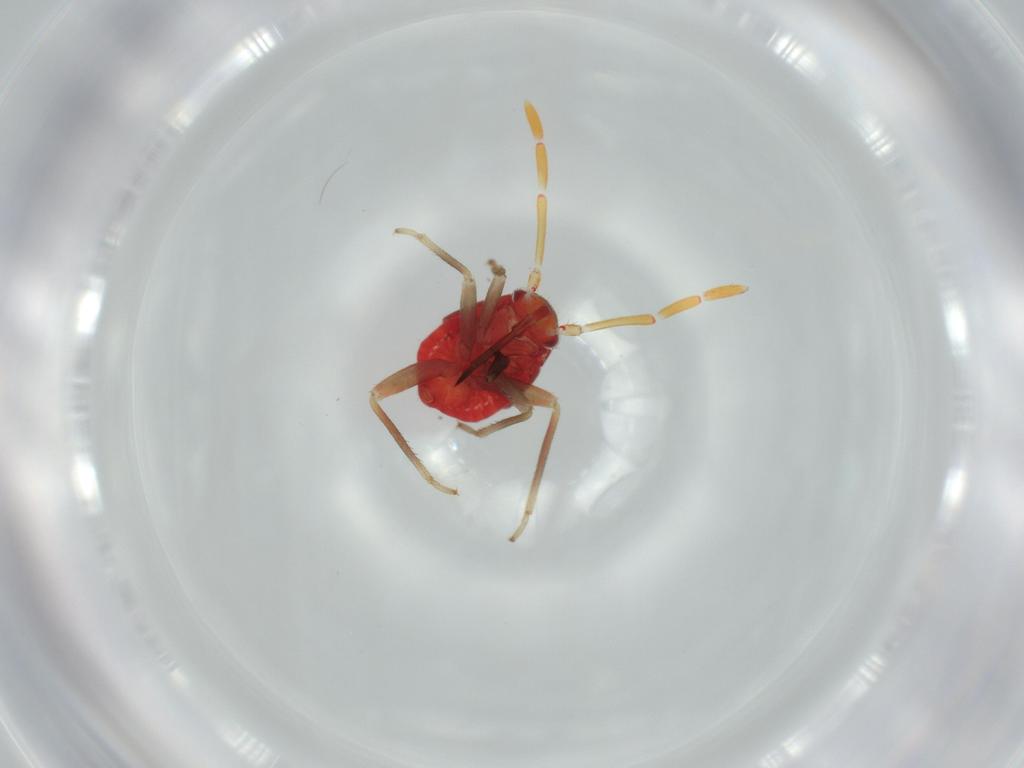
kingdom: Animalia
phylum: Arthropoda
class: Insecta
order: Hemiptera
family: Miridae
